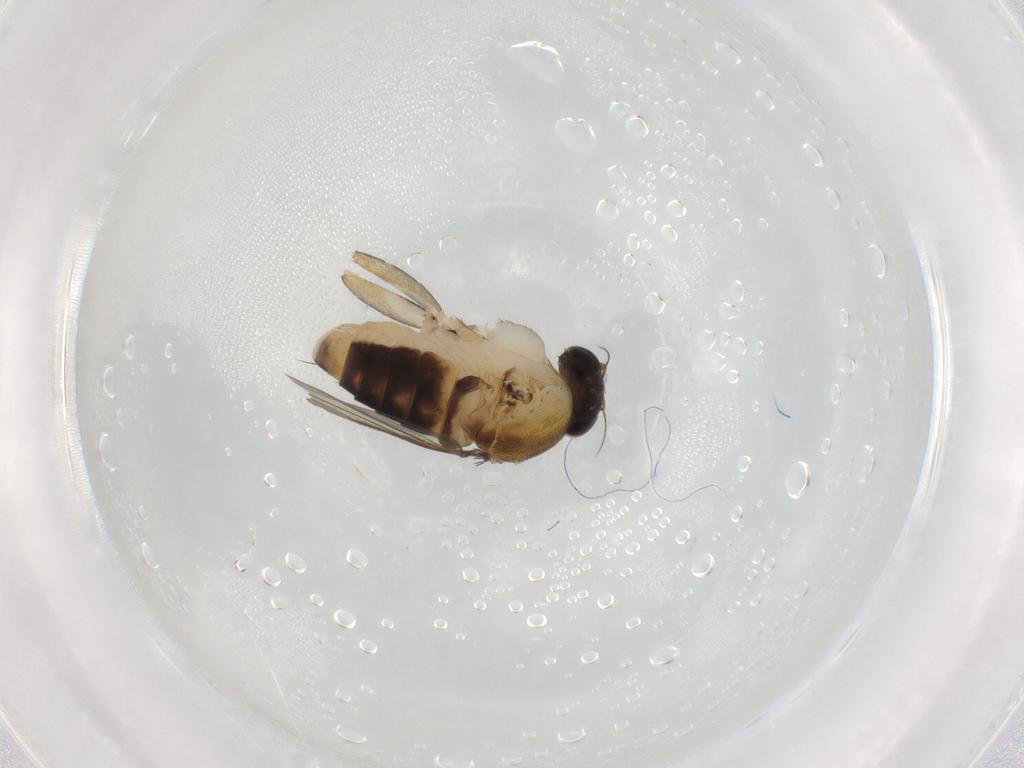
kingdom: Animalia
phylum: Arthropoda
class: Insecta
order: Diptera
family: Phoridae
